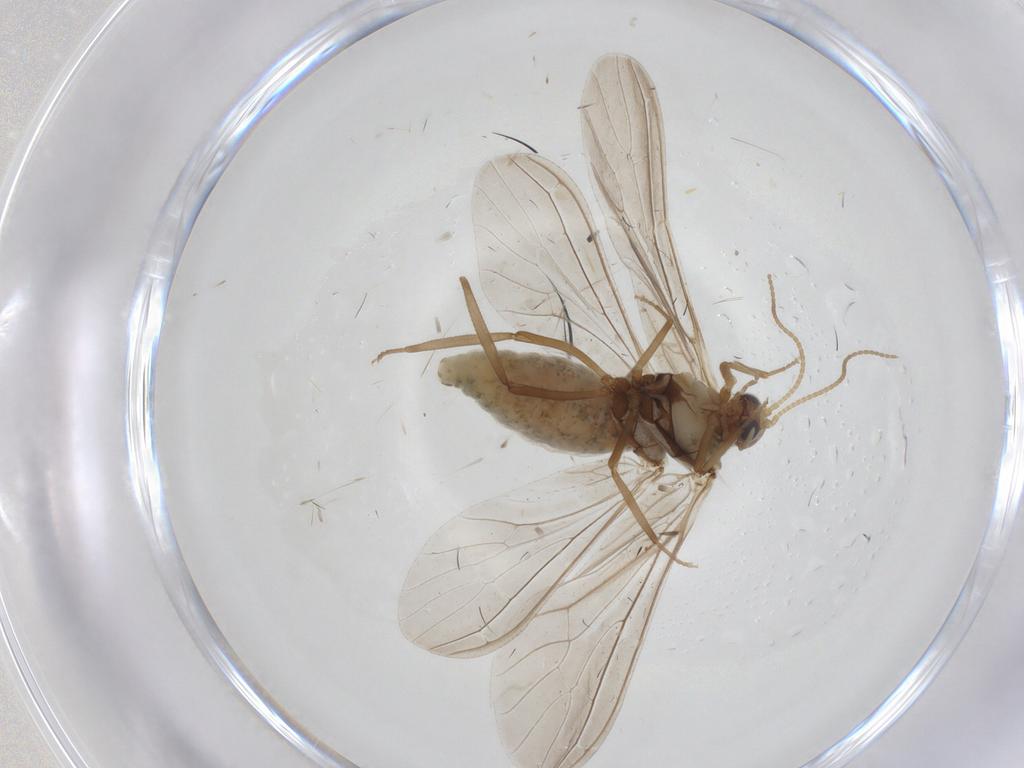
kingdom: Animalia
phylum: Arthropoda
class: Insecta
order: Neuroptera
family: Coniopterygidae
